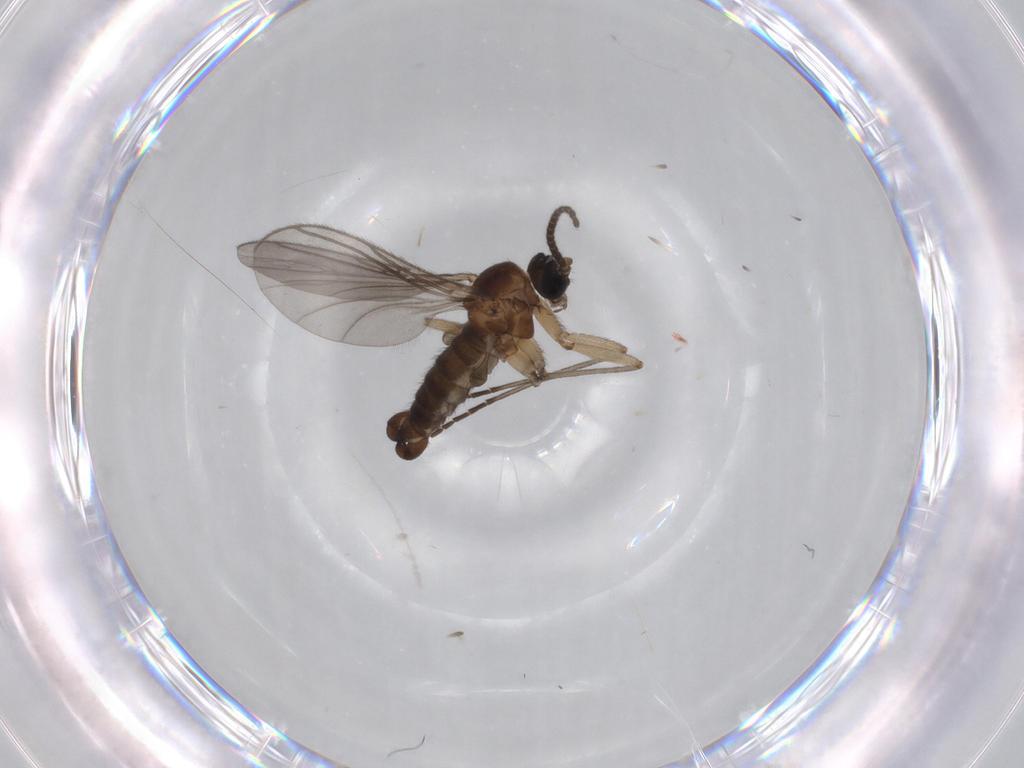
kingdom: Animalia
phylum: Arthropoda
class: Insecta
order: Diptera
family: Sciaridae
